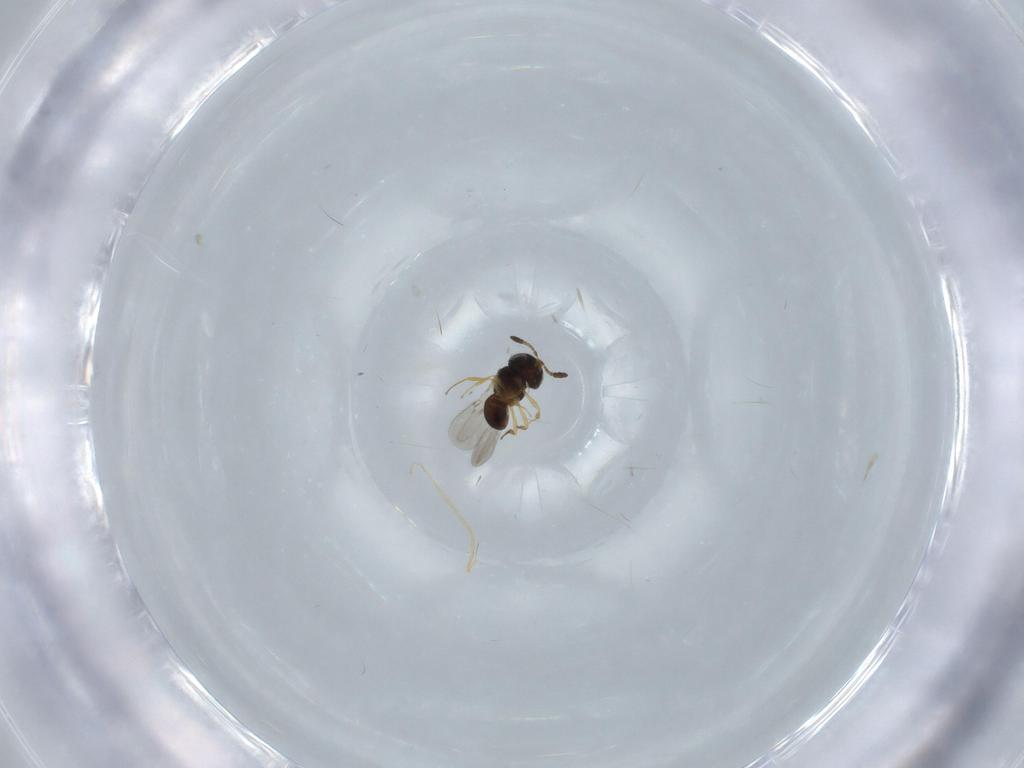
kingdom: Animalia
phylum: Arthropoda
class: Insecta
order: Hymenoptera
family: Scelionidae
